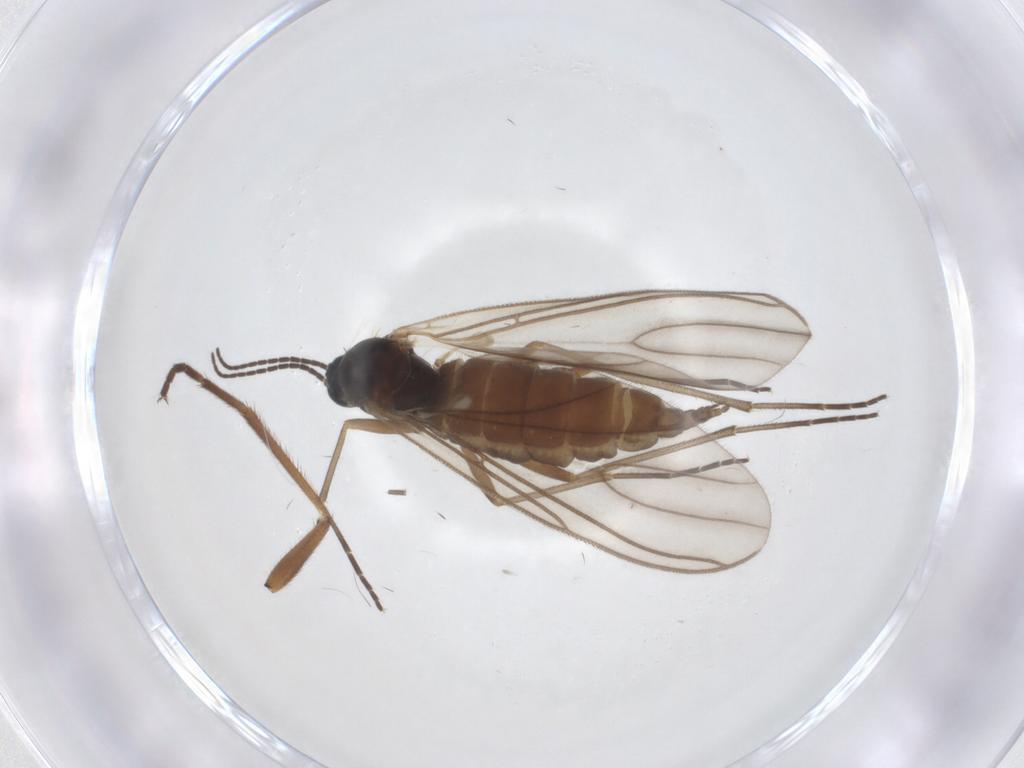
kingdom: Animalia
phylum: Arthropoda
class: Insecta
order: Diptera
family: Sciaridae
